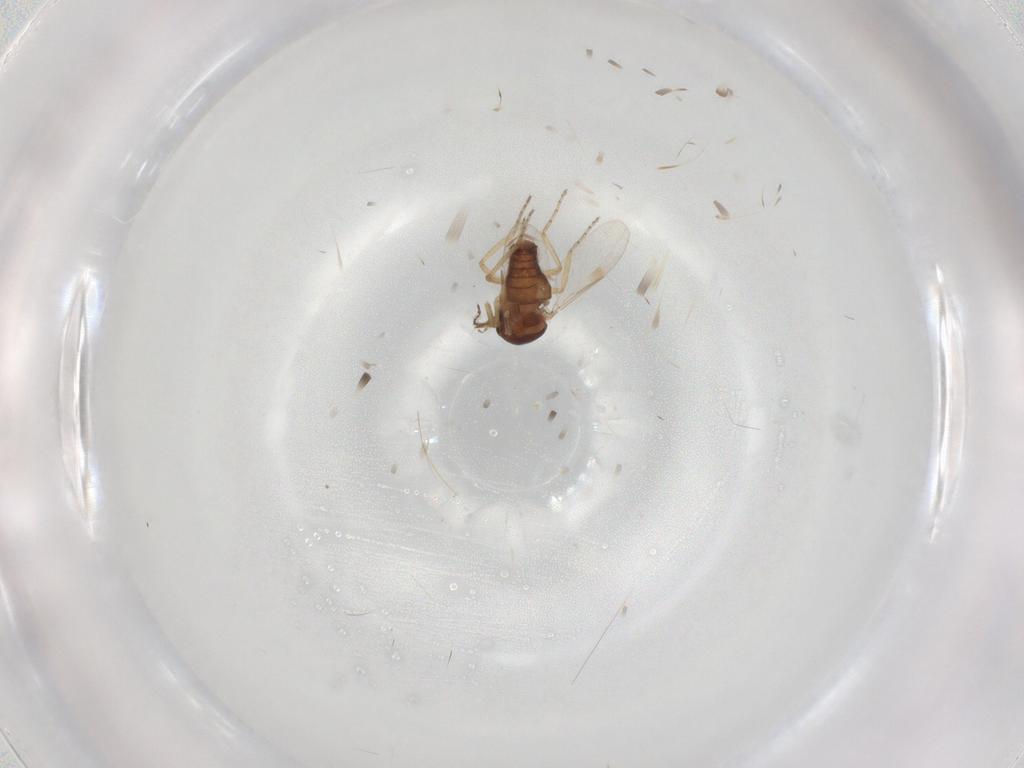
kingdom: Animalia
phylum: Arthropoda
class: Insecta
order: Diptera
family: Ceratopogonidae
